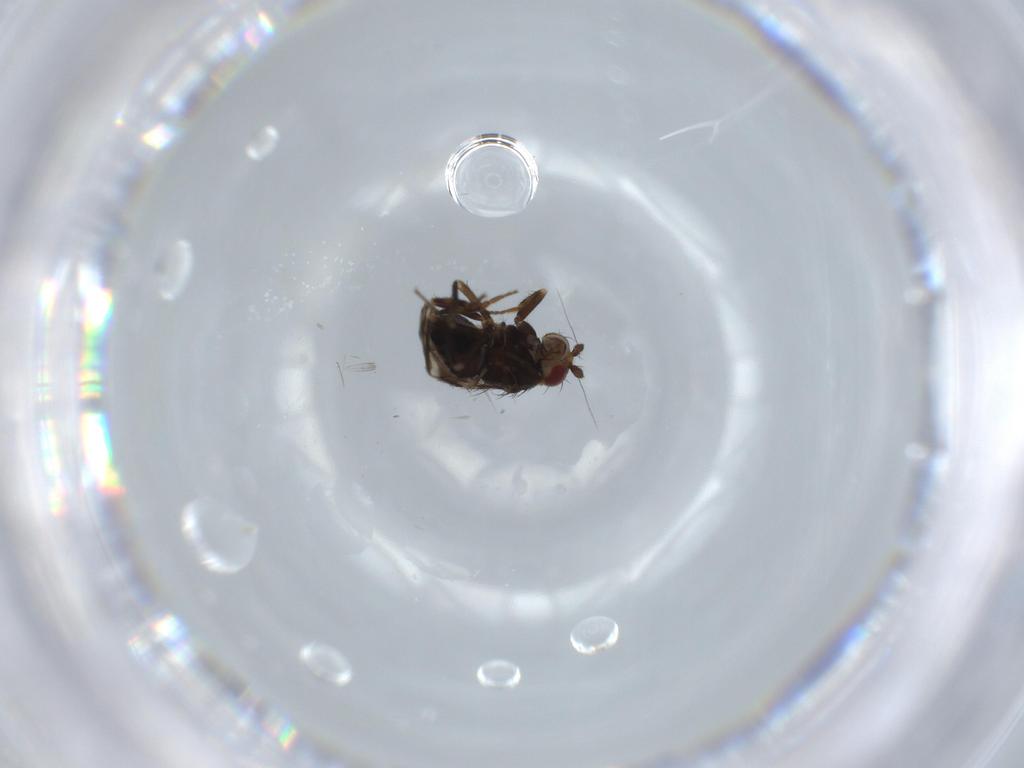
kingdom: Animalia
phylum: Arthropoda
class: Insecta
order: Diptera
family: Sphaeroceridae
